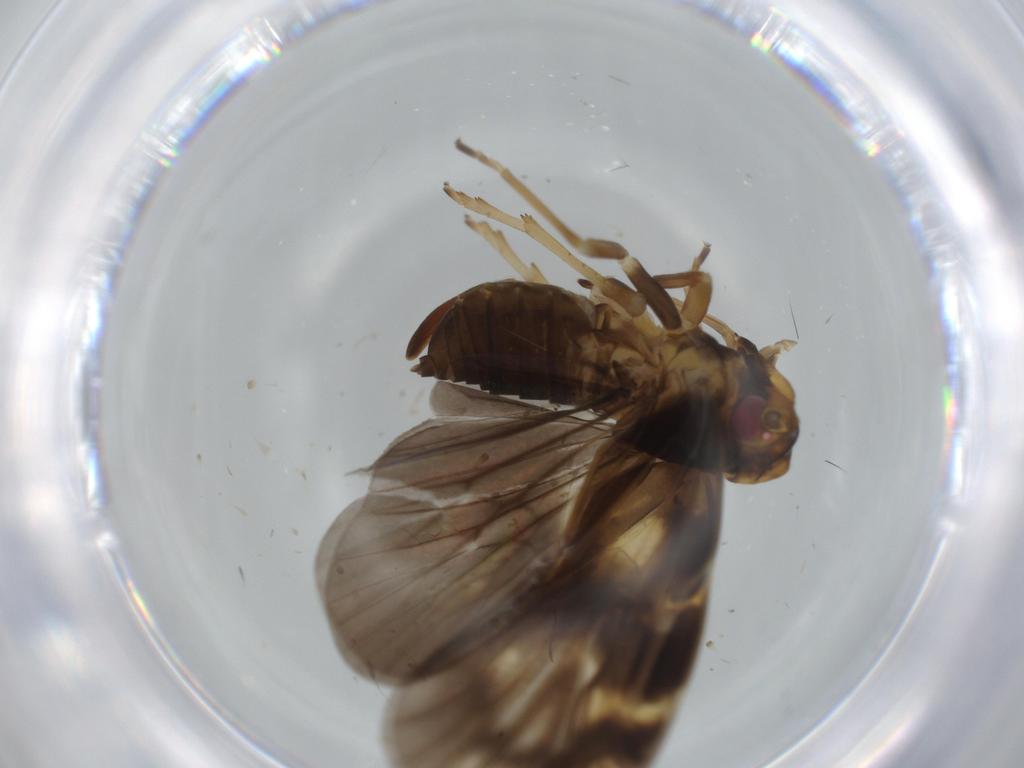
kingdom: Animalia
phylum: Arthropoda
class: Insecta
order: Hemiptera
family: Cixiidae
